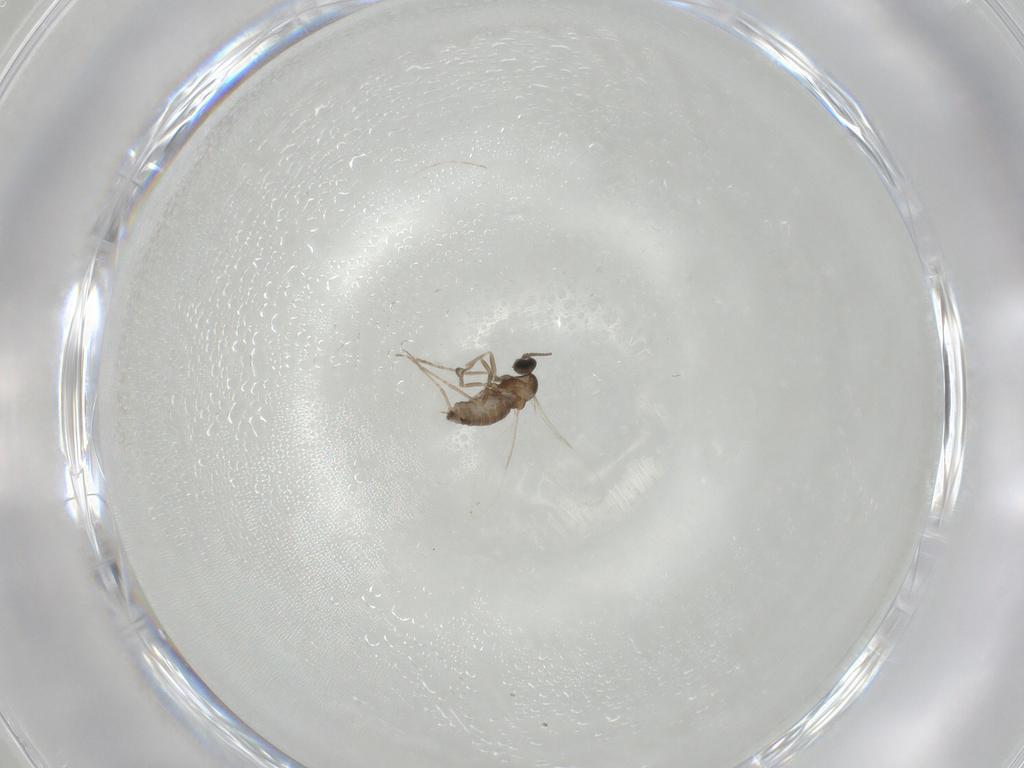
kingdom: Animalia
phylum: Arthropoda
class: Insecta
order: Diptera
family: Cecidomyiidae
